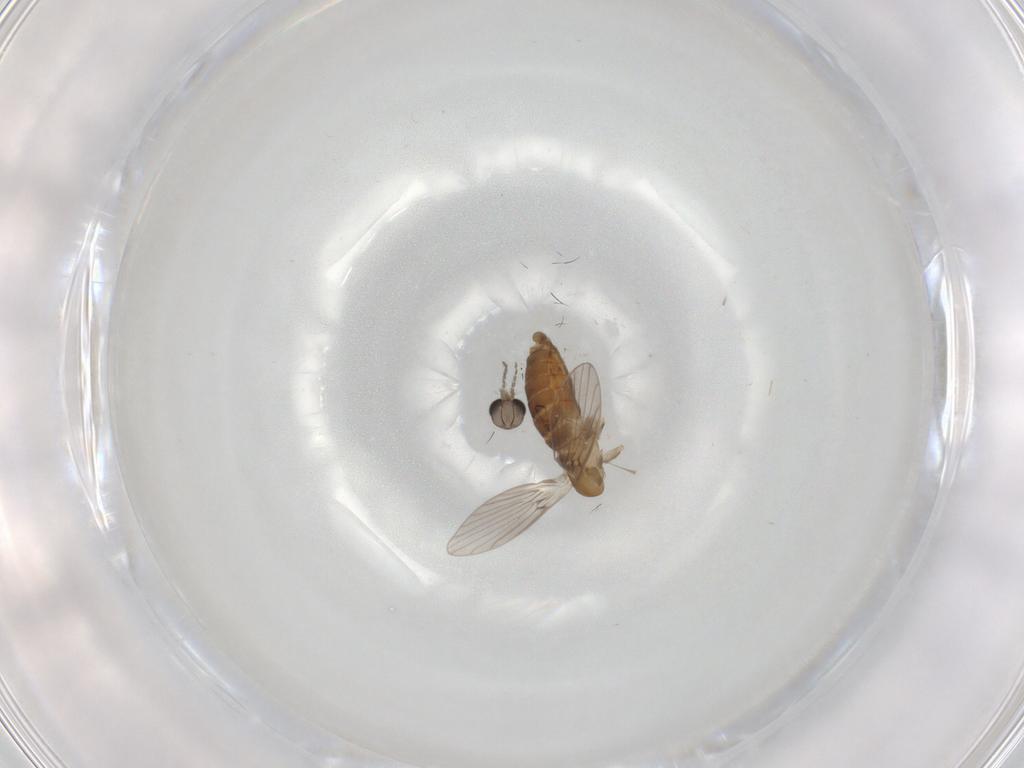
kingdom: Animalia
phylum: Arthropoda
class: Insecta
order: Diptera
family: Psychodidae
